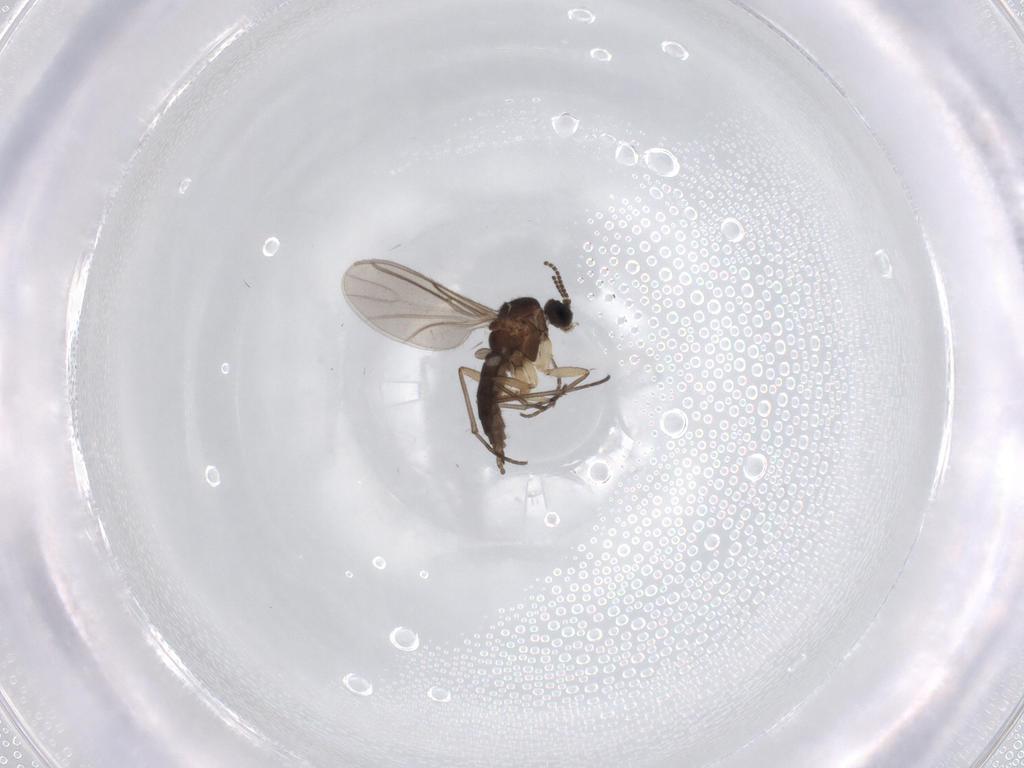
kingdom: Animalia
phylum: Arthropoda
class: Insecta
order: Diptera
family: Sciaridae
